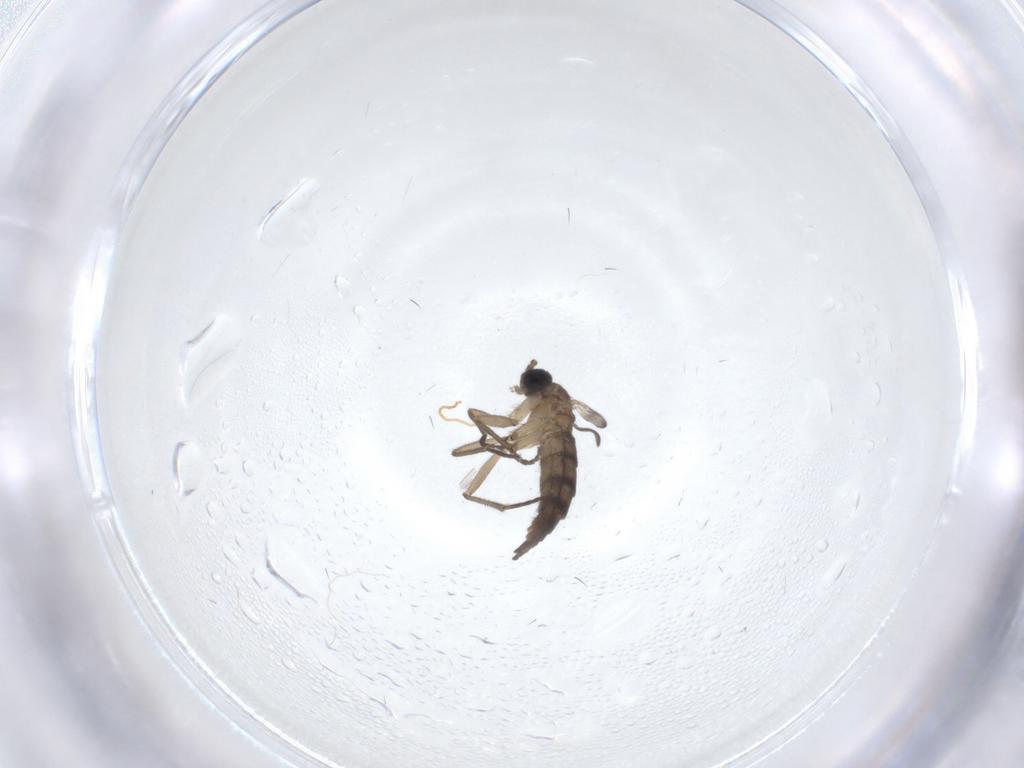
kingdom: Animalia
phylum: Arthropoda
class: Insecta
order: Diptera
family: Sciaridae
